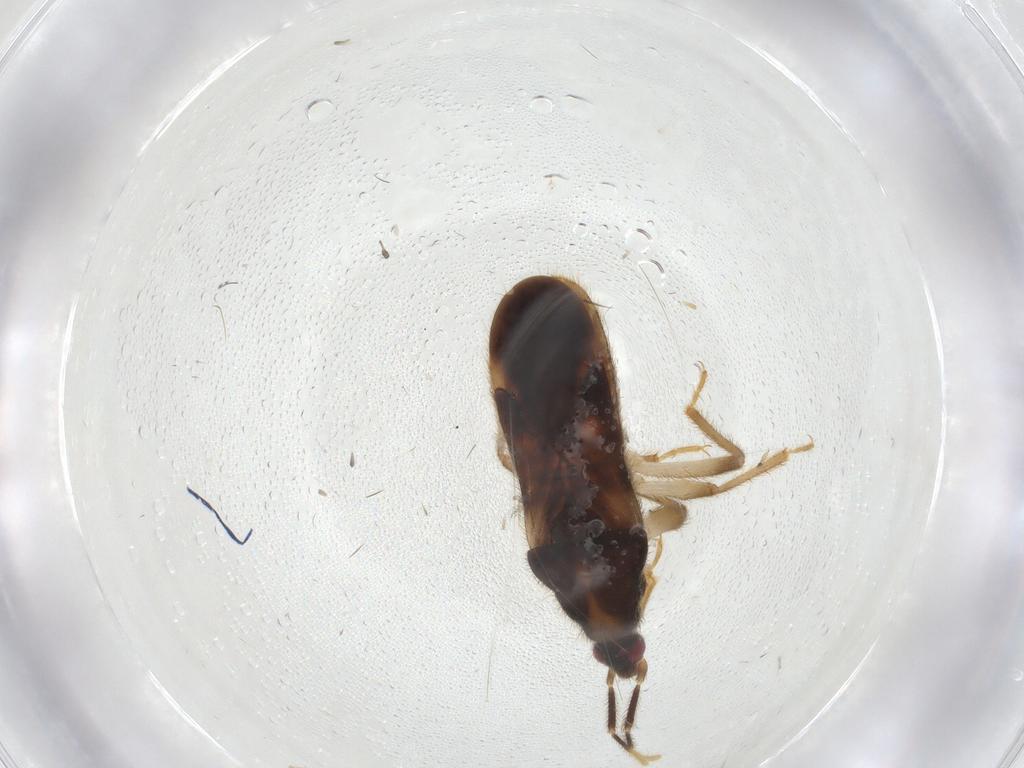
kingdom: Animalia
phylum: Arthropoda
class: Insecta
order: Hemiptera
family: Nabidae
